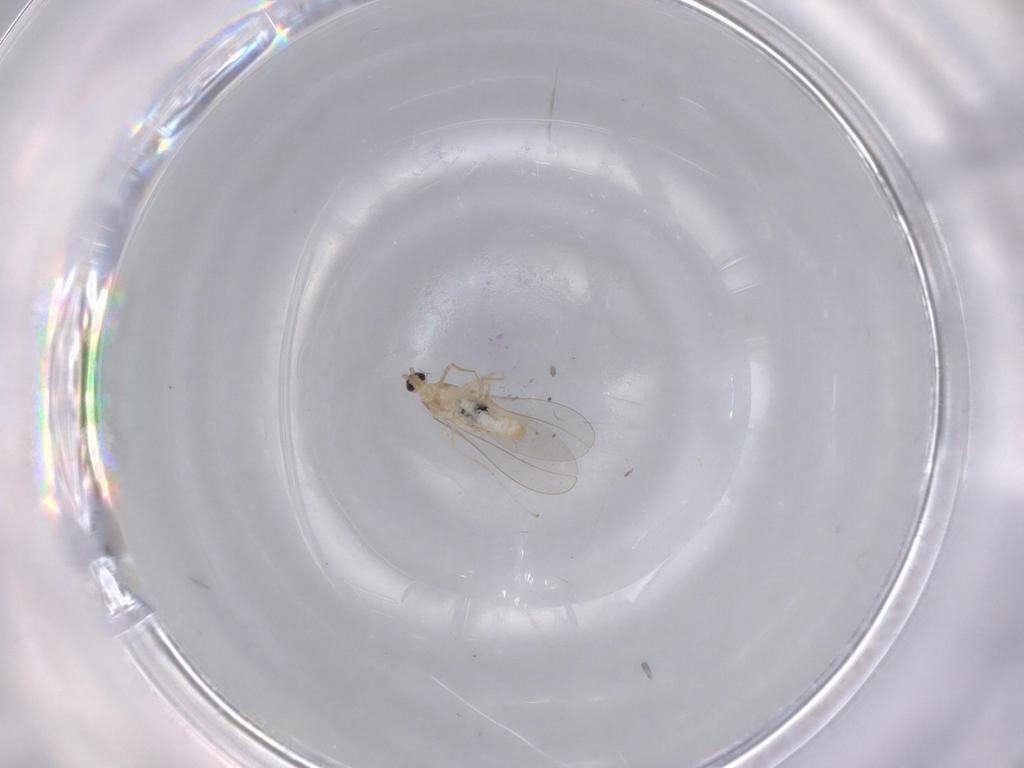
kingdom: Animalia
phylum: Arthropoda
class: Insecta
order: Diptera
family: Cecidomyiidae
